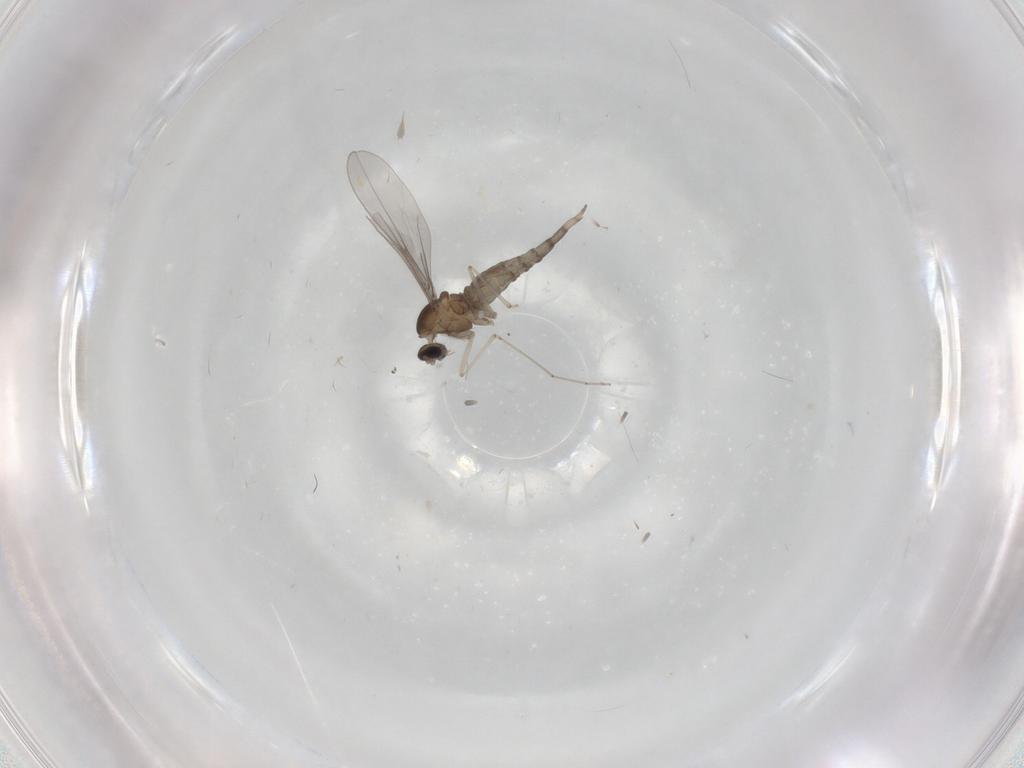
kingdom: Animalia
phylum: Arthropoda
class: Insecta
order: Diptera
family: Cecidomyiidae
